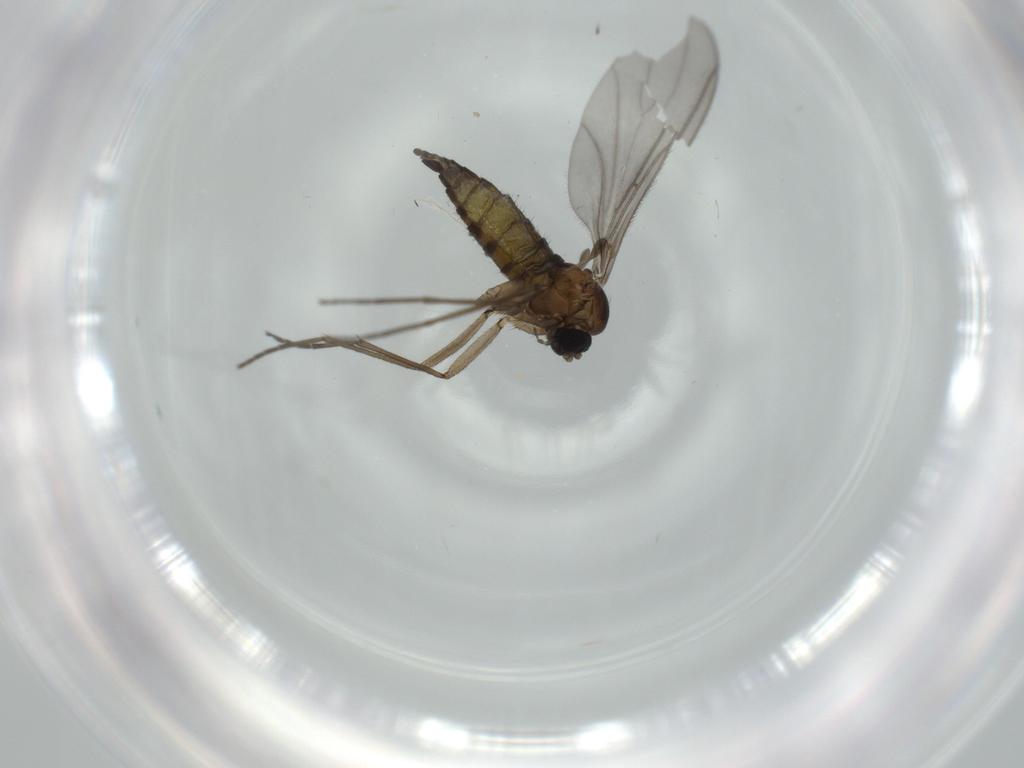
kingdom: Animalia
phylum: Arthropoda
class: Insecta
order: Diptera
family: Sciaridae
